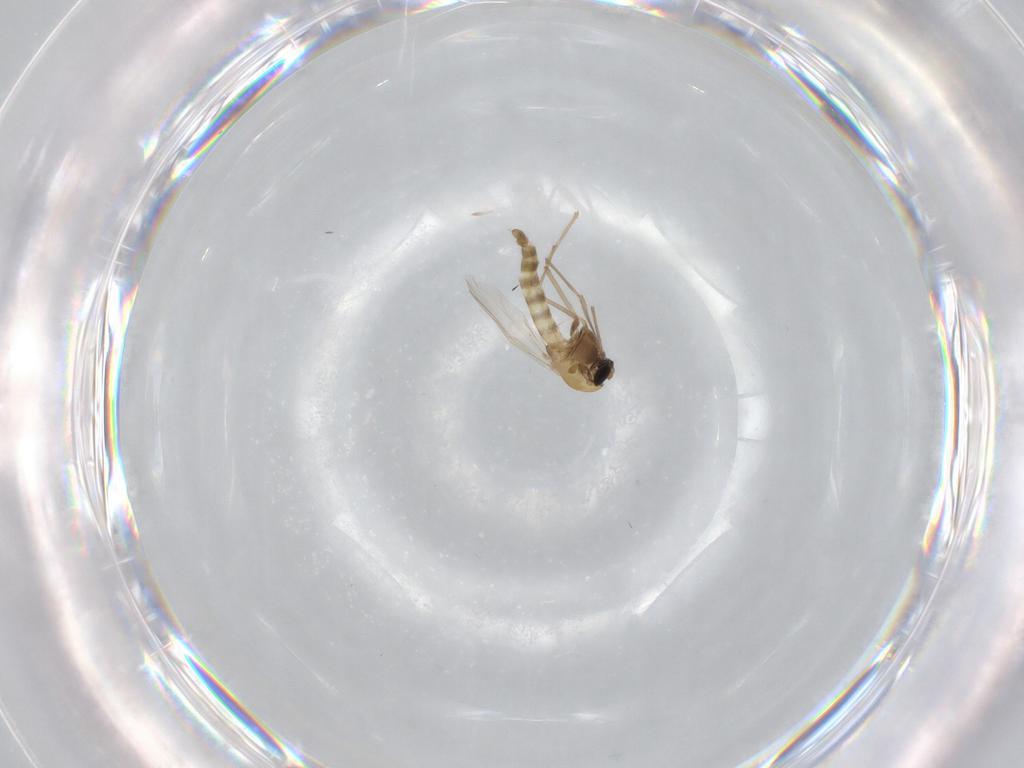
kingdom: Animalia
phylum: Arthropoda
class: Insecta
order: Diptera
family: Chironomidae
